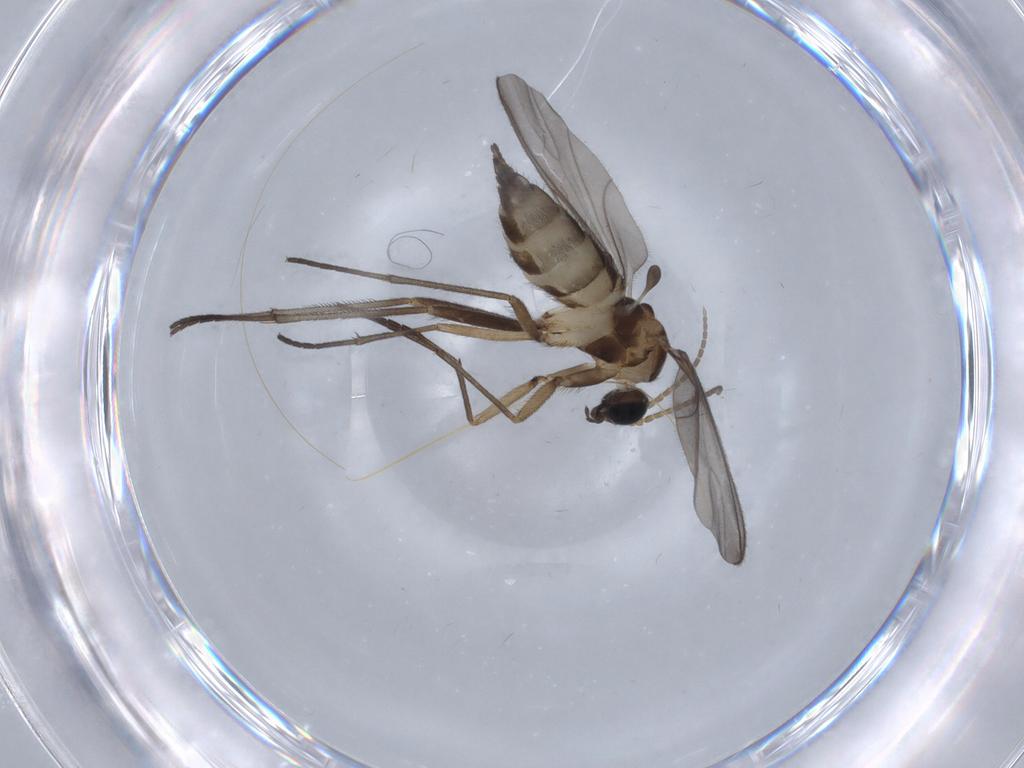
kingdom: Animalia
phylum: Arthropoda
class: Insecta
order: Diptera
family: Sciaridae
